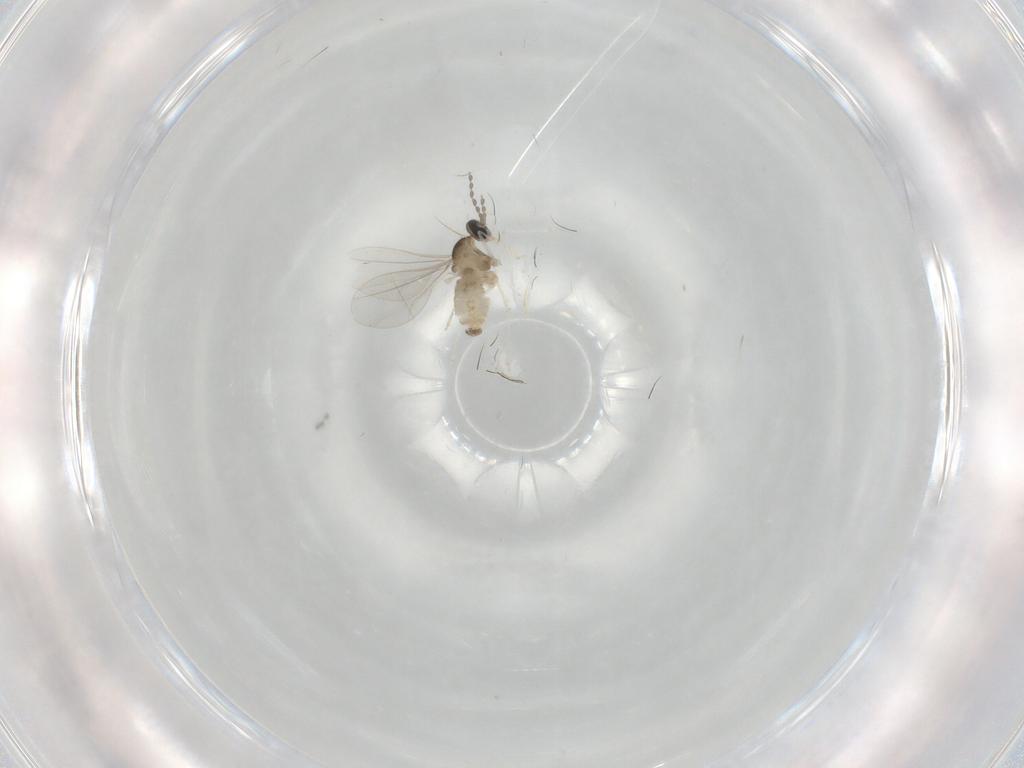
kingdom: Animalia
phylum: Arthropoda
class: Insecta
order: Diptera
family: Cecidomyiidae
